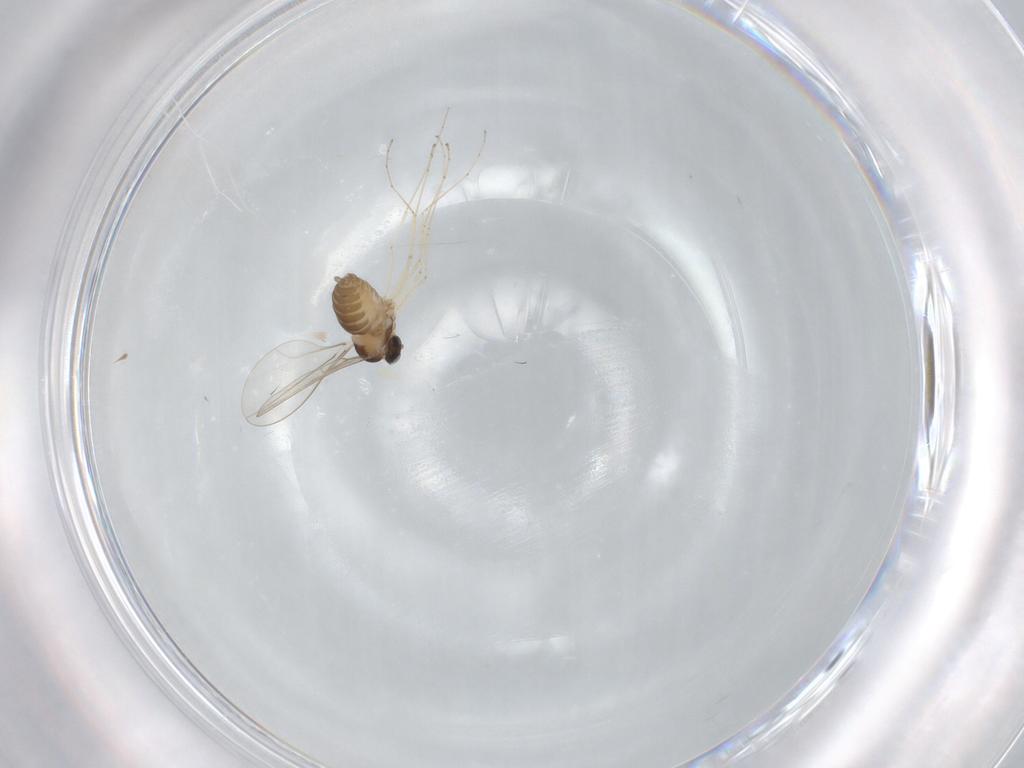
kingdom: Animalia
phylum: Arthropoda
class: Insecta
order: Diptera
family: Cecidomyiidae
